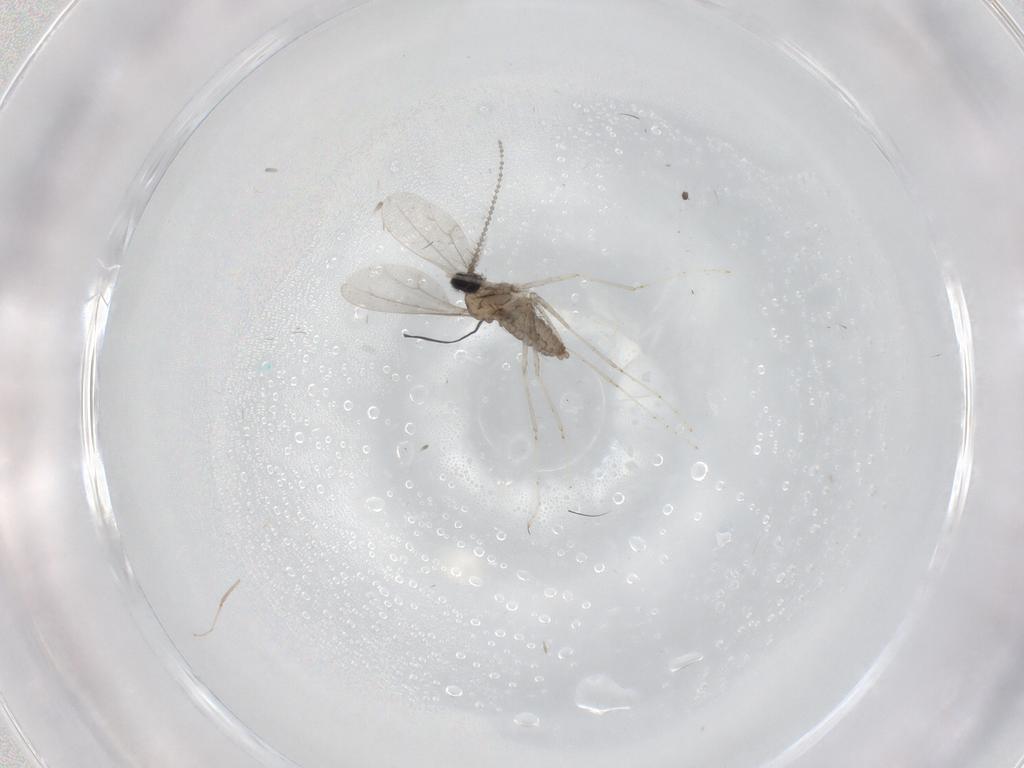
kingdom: Animalia
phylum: Arthropoda
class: Insecta
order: Diptera
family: Cecidomyiidae
